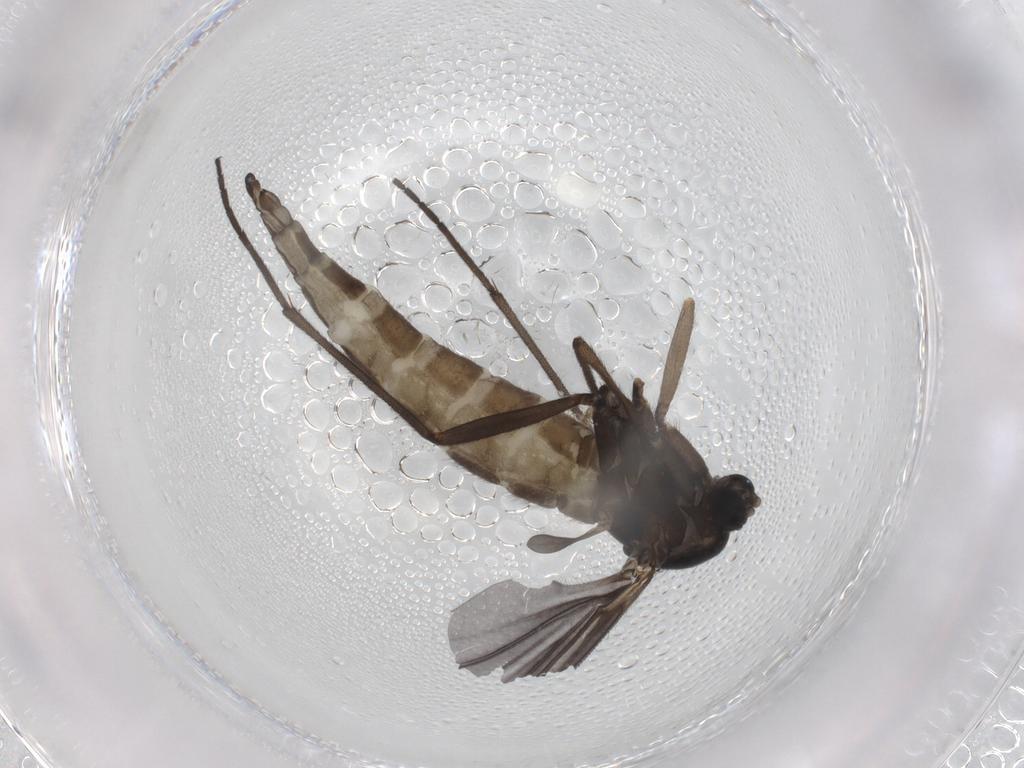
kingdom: Animalia
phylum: Arthropoda
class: Insecta
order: Diptera
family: Sciaridae
